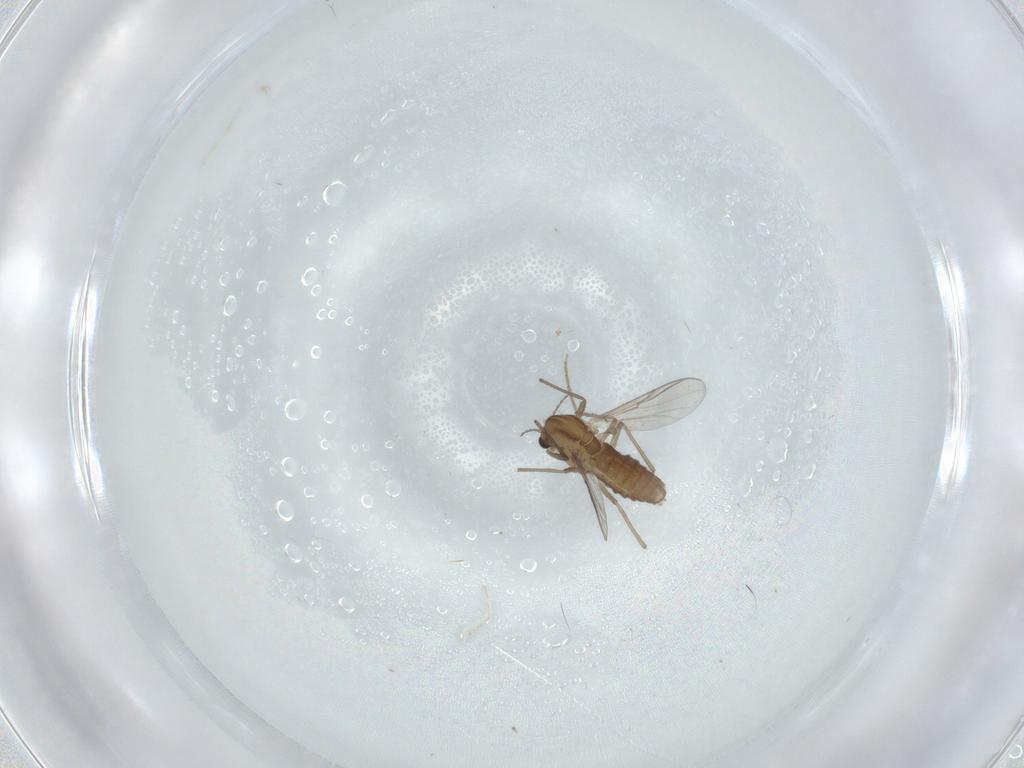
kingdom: Animalia
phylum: Arthropoda
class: Insecta
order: Diptera
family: Chironomidae
